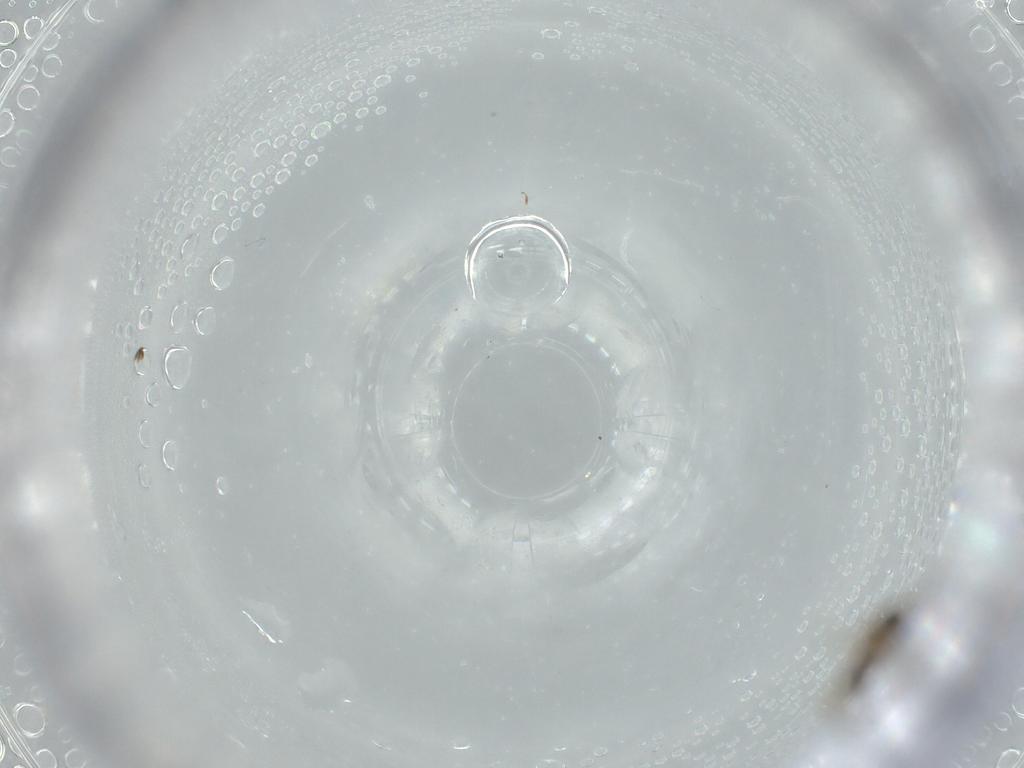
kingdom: Animalia
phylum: Arthropoda
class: Insecta
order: Diptera
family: Cecidomyiidae
